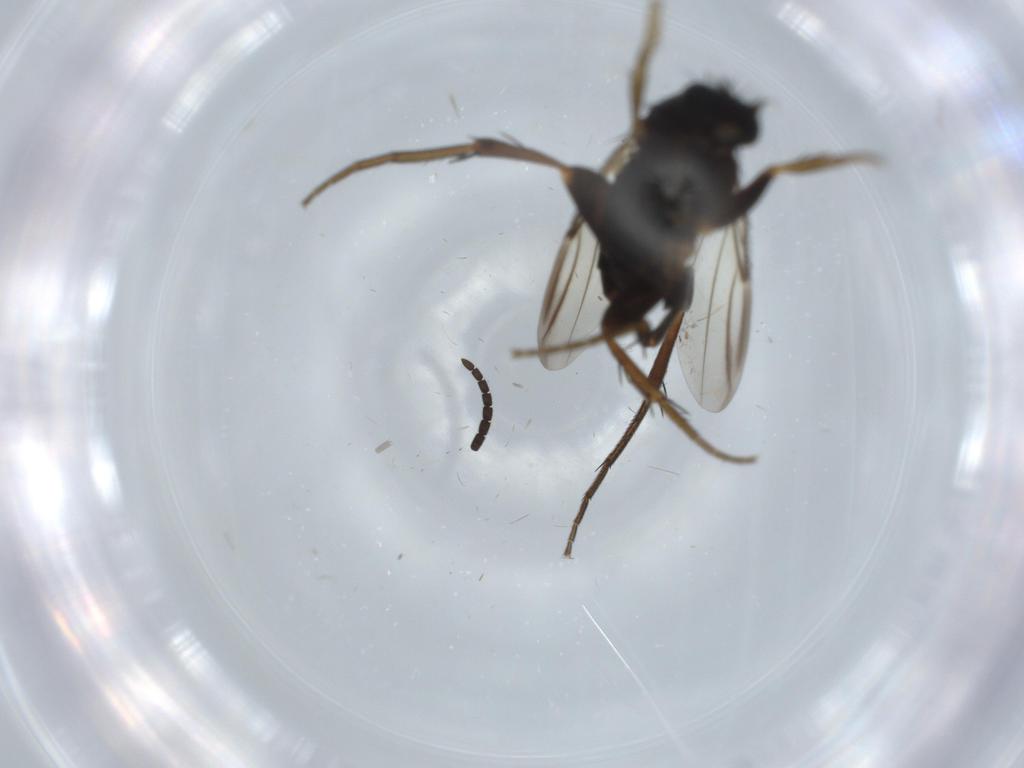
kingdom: Animalia
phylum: Arthropoda
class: Insecta
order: Diptera
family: Phoridae
